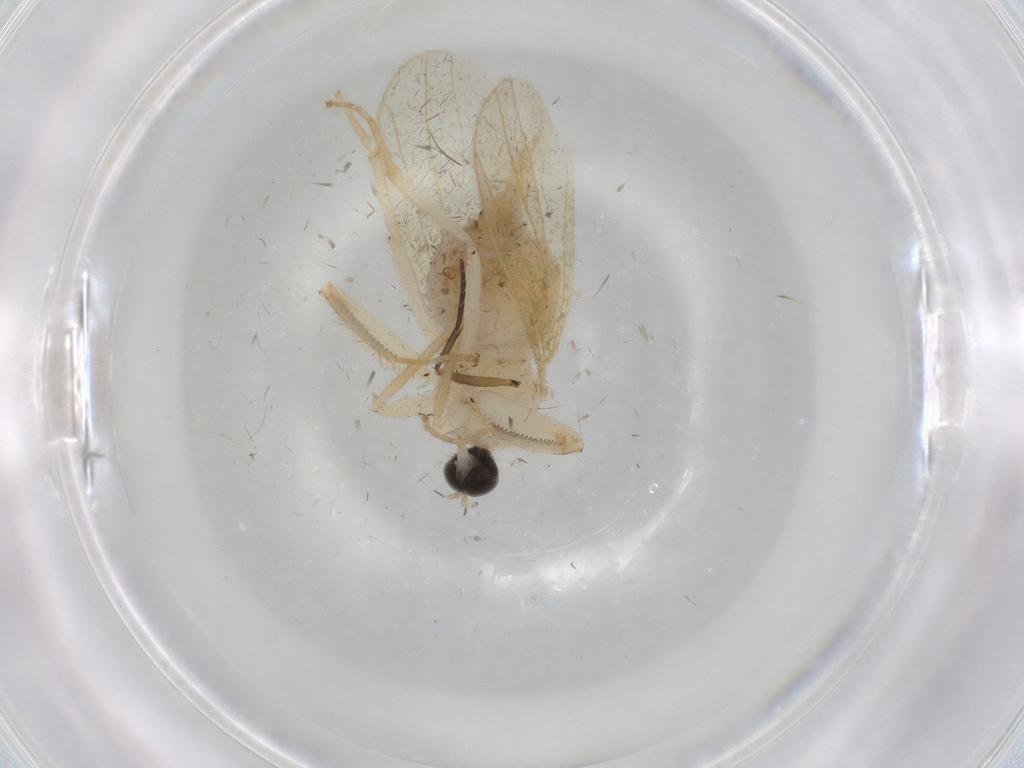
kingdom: Animalia
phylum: Arthropoda
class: Insecta
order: Diptera
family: Hybotidae
